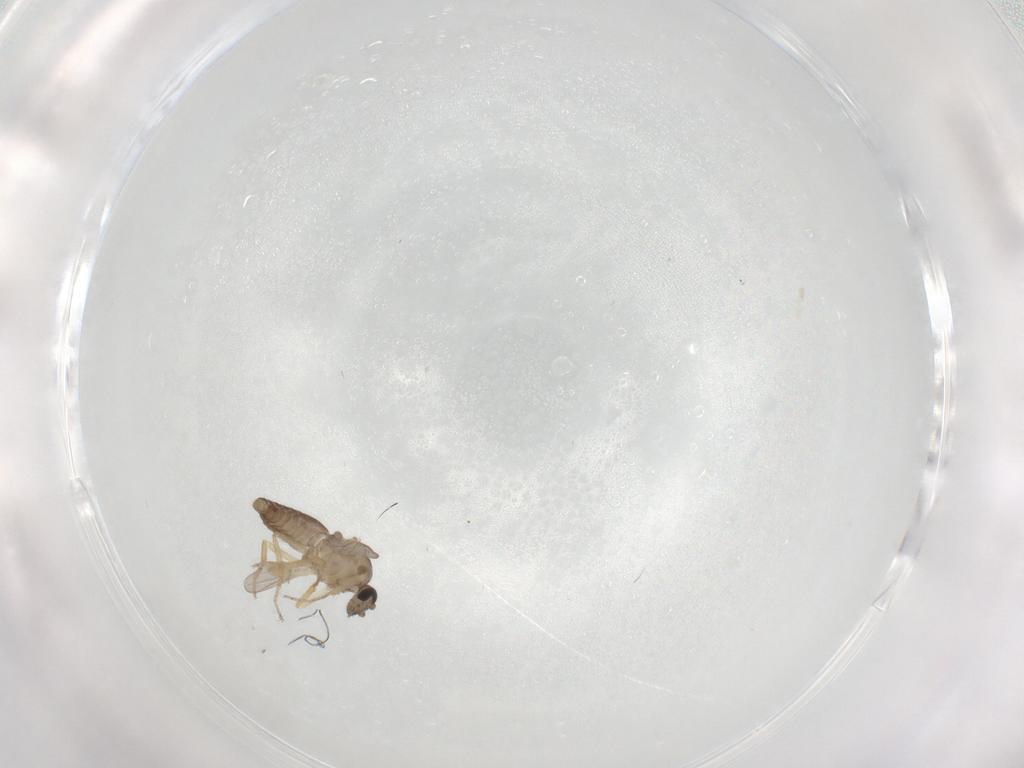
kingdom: Animalia
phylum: Arthropoda
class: Insecta
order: Diptera
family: Ceratopogonidae
